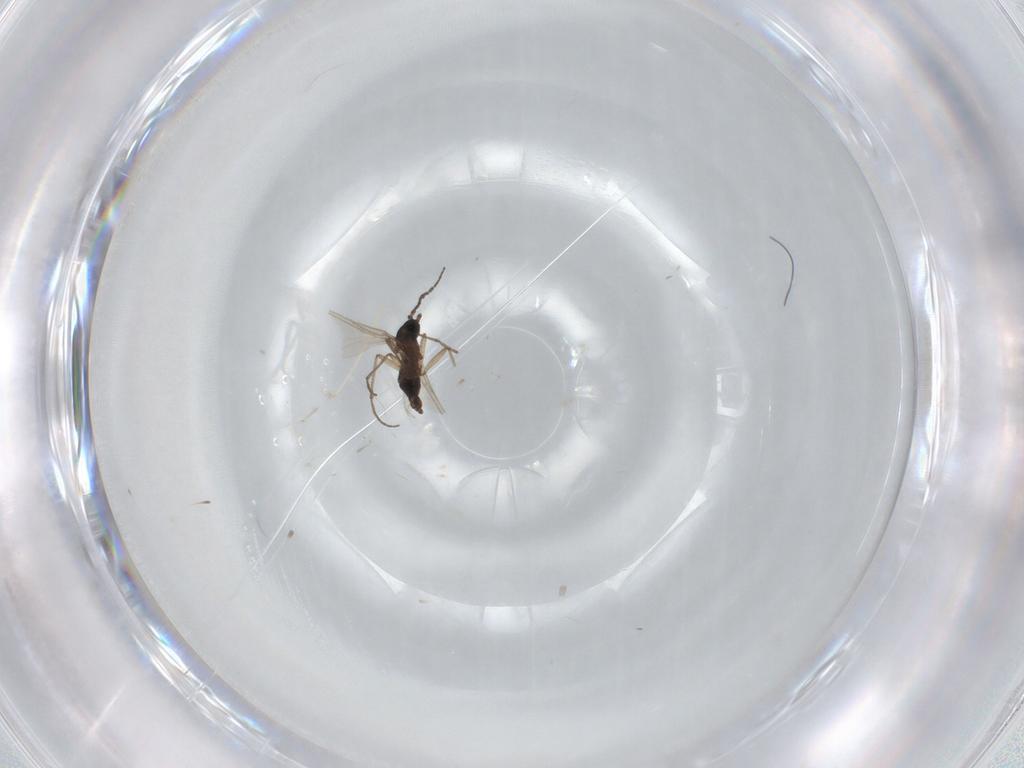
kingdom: Animalia
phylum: Arthropoda
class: Insecta
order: Diptera
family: Sciaridae
